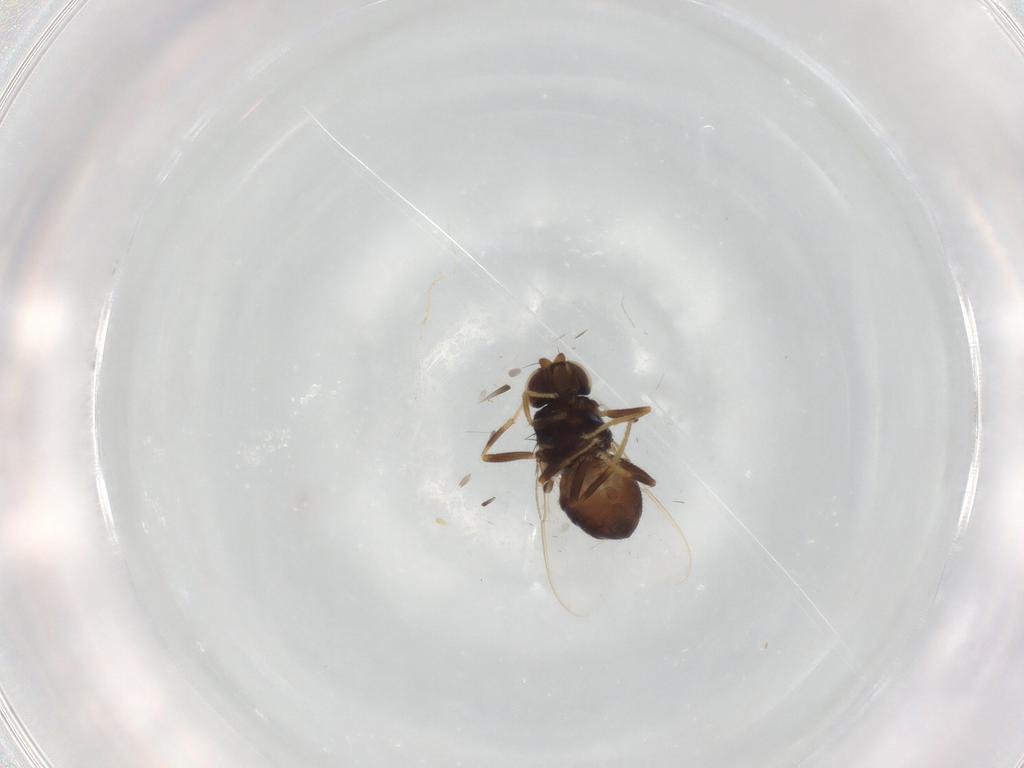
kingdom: Animalia
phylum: Arthropoda
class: Insecta
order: Diptera
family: Chloropidae
